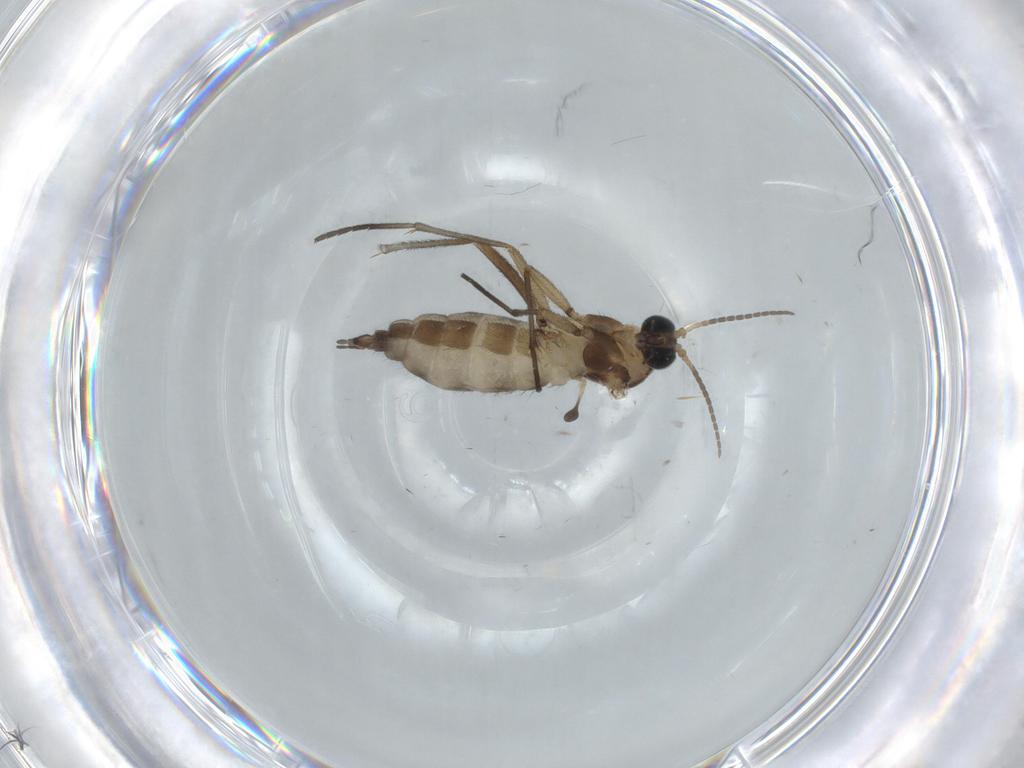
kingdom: Animalia
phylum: Arthropoda
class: Insecta
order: Diptera
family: Sciaridae
